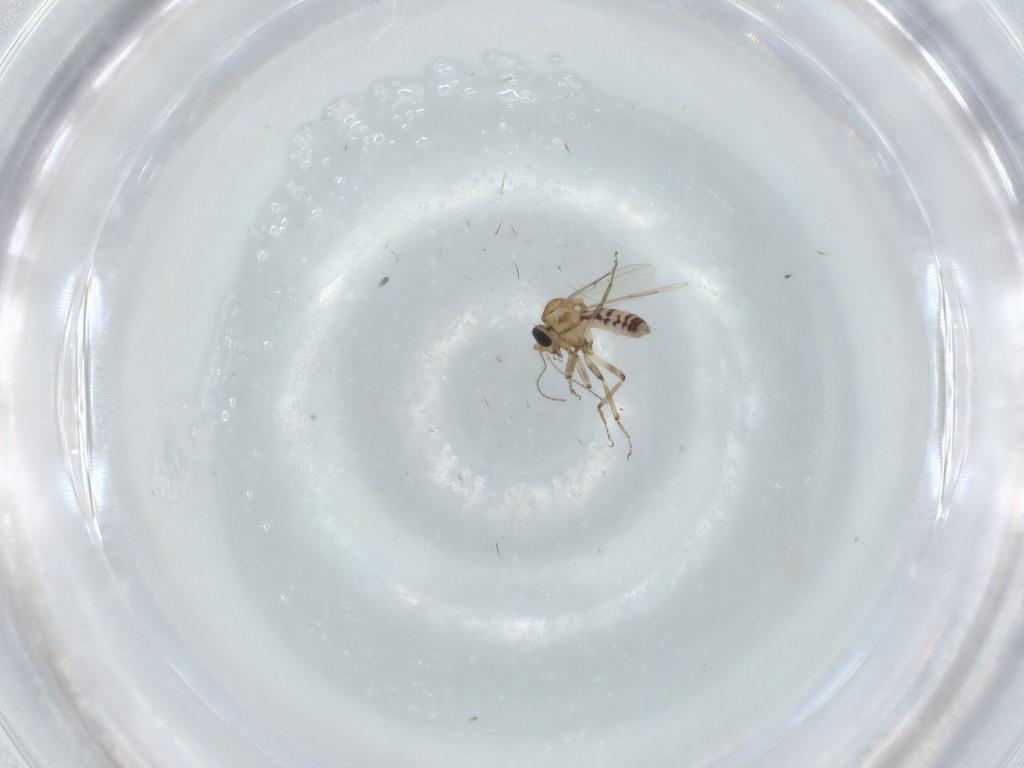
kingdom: Animalia
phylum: Arthropoda
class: Insecta
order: Diptera
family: Ceratopogonidae
